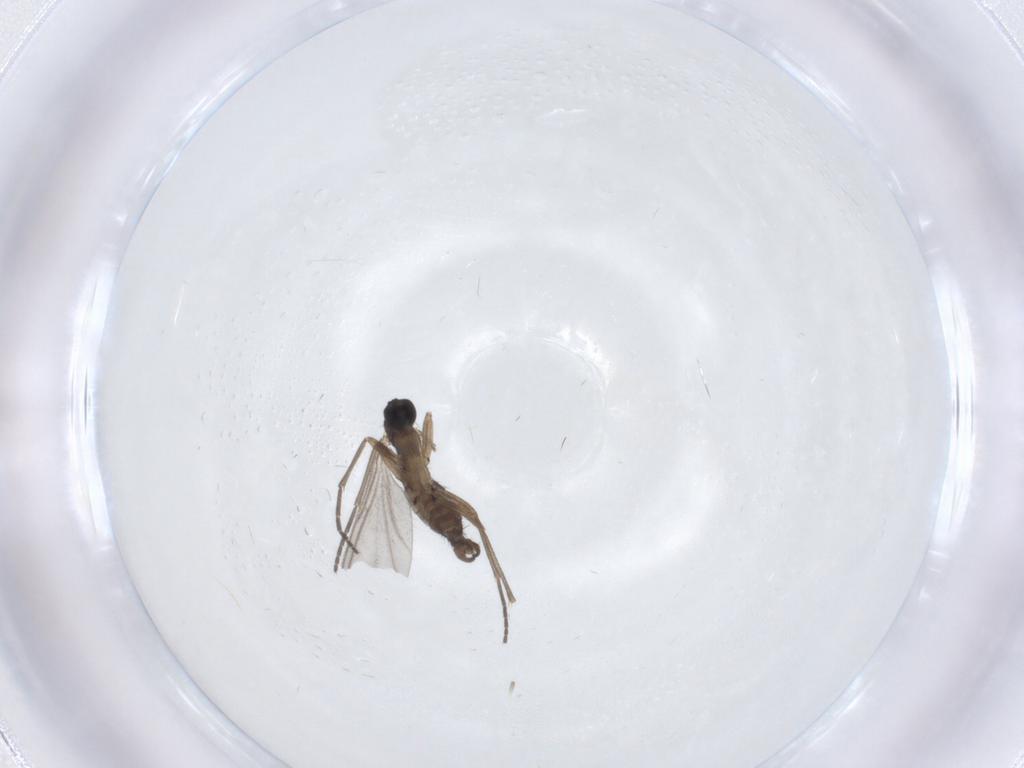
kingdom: Animalia
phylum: Arthropoda
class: Insecta
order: Diptera
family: Sciaridae
